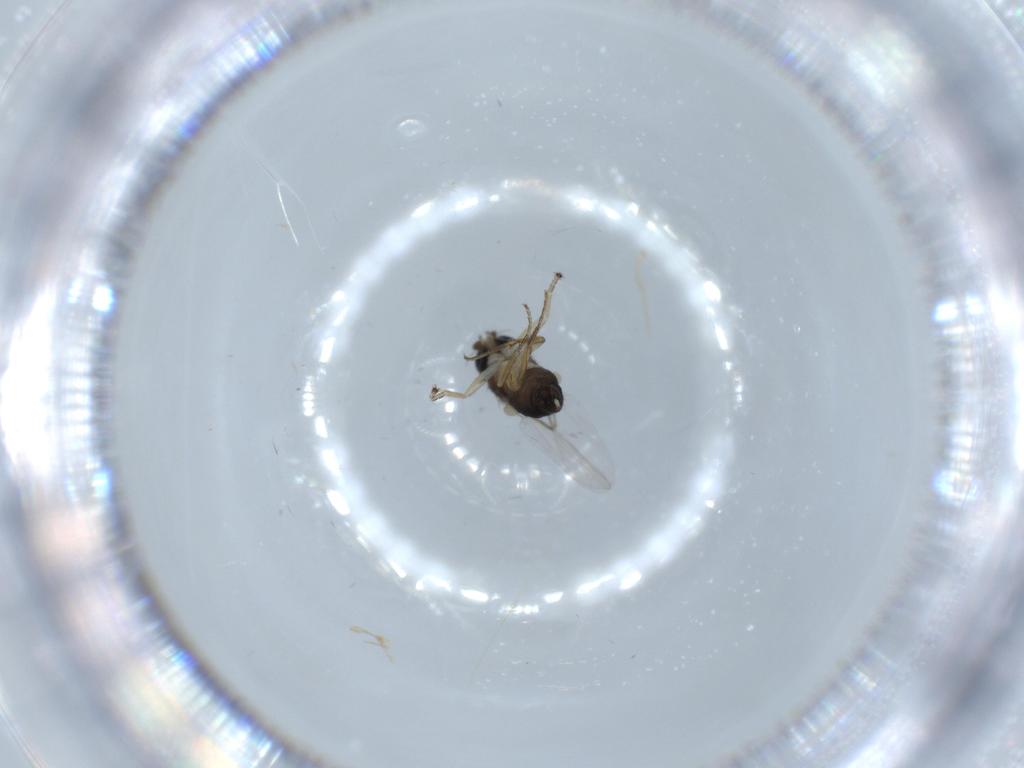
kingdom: Animalia
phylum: Arthropoda
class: Insecta
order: Diptera
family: Phoridae
